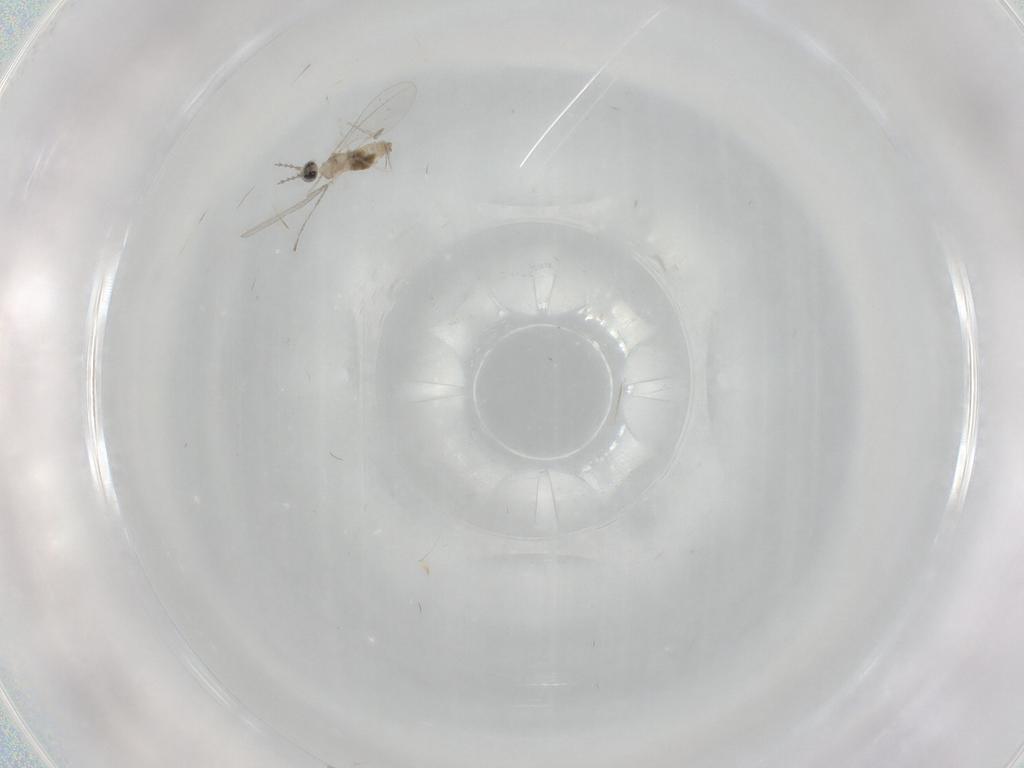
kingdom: Animalia
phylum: Arthropoda
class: Insecta
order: Diptera
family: Cecidomyiidae
